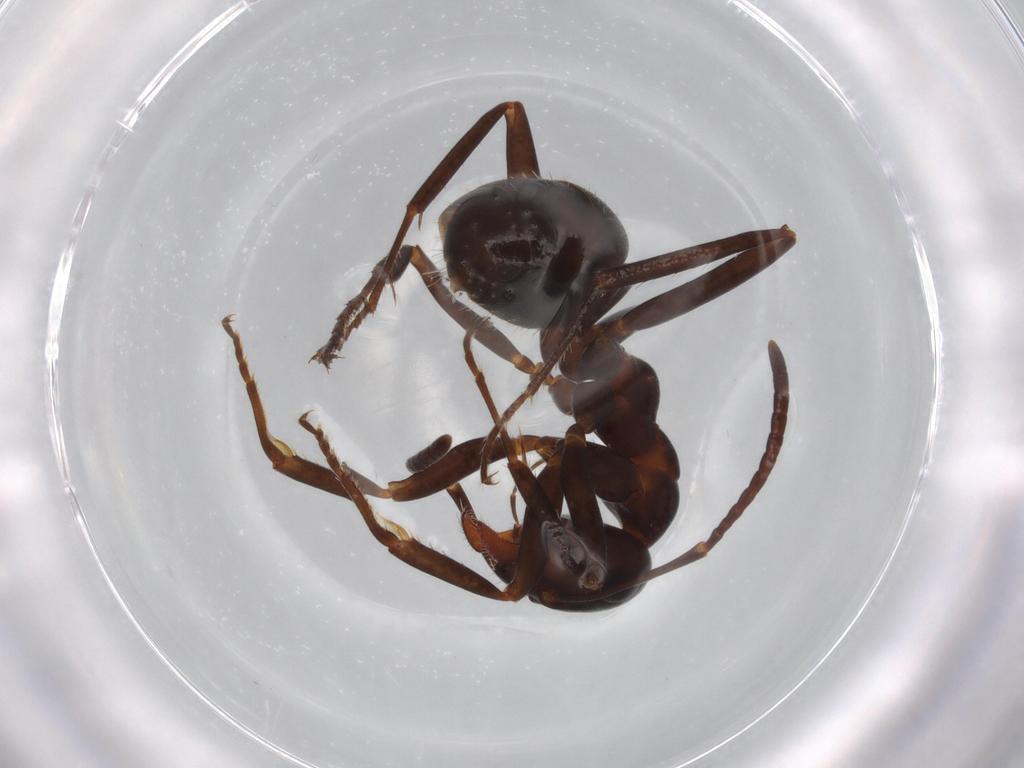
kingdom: Animalia
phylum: Arthropoda
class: Insecta
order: Hymenoptera
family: Formicidae
